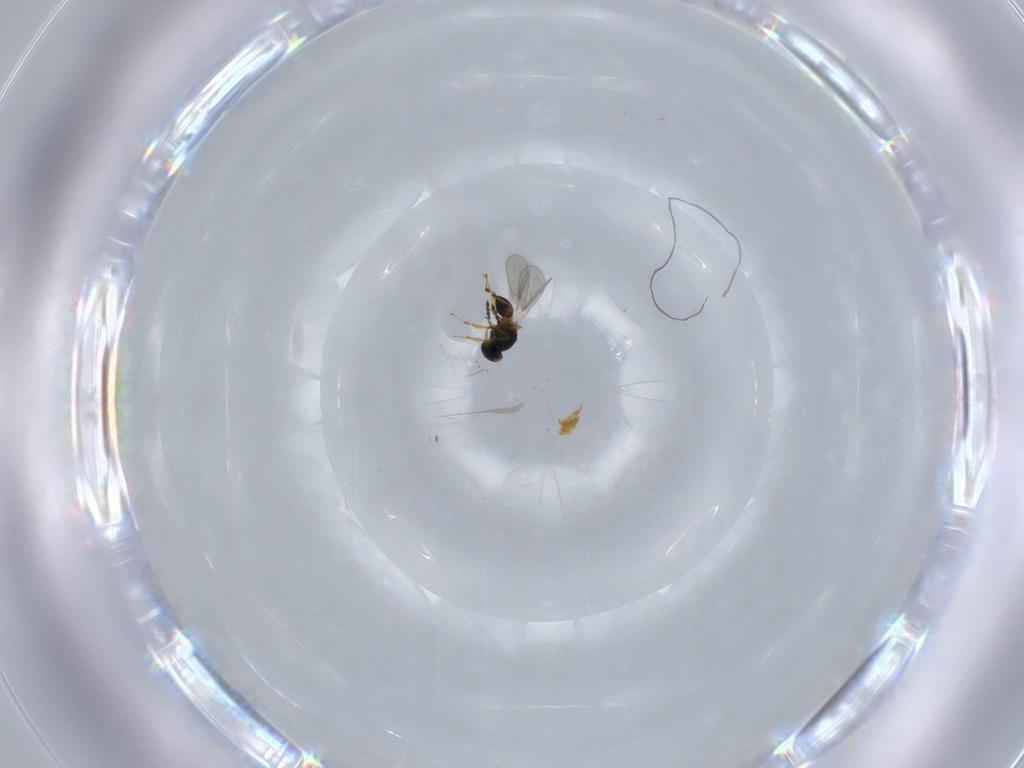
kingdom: Animalia
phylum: Arthropoda
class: Insecta
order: Hymenoptera
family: Platygastridae
